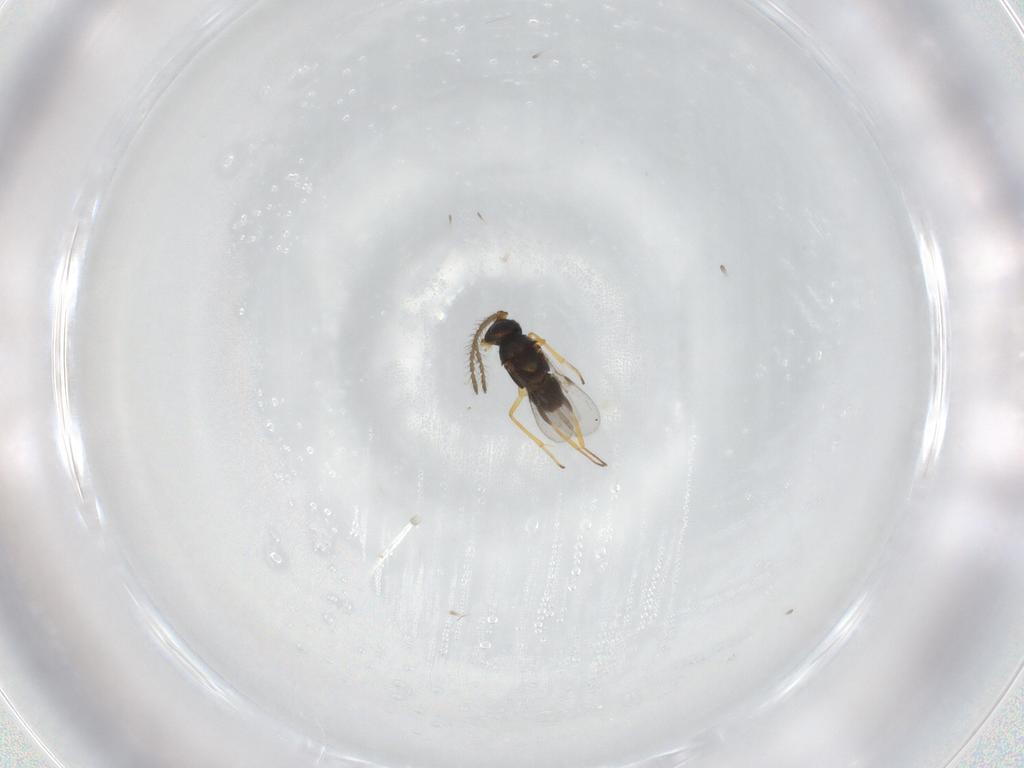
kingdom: Animalia
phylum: Arthropoda
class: Insecta
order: Hymenoptera
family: Encyrtidae
